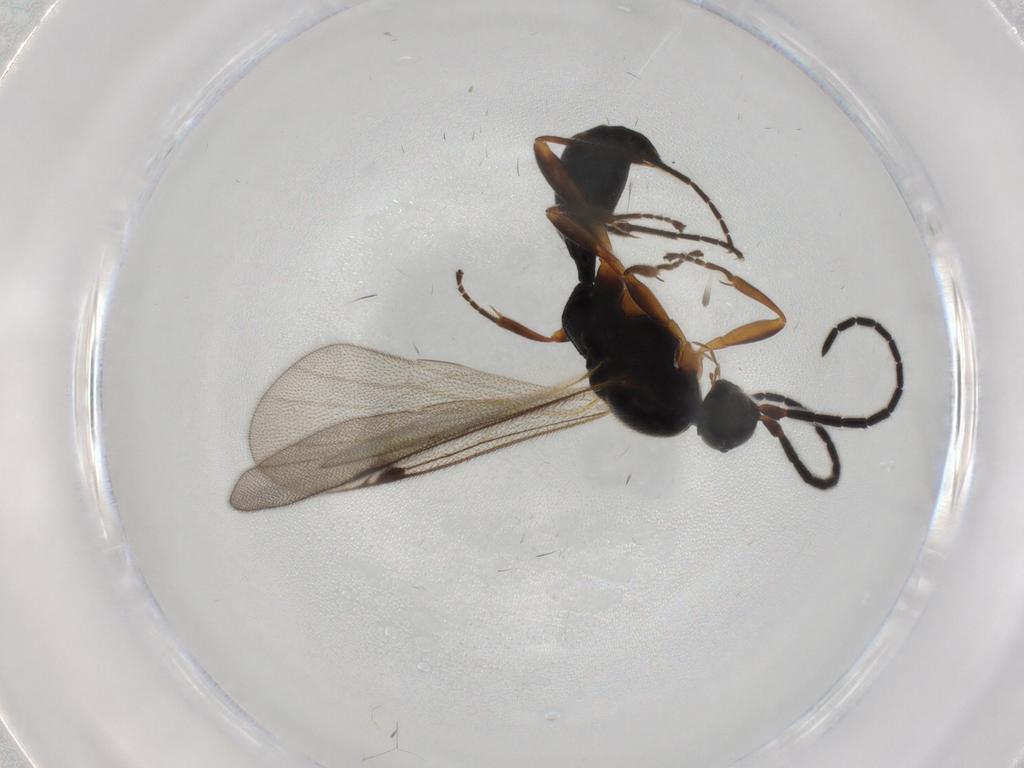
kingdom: Animalia
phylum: Arthropoda
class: Insecta
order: Hymenoptera
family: Proctotrupidae
